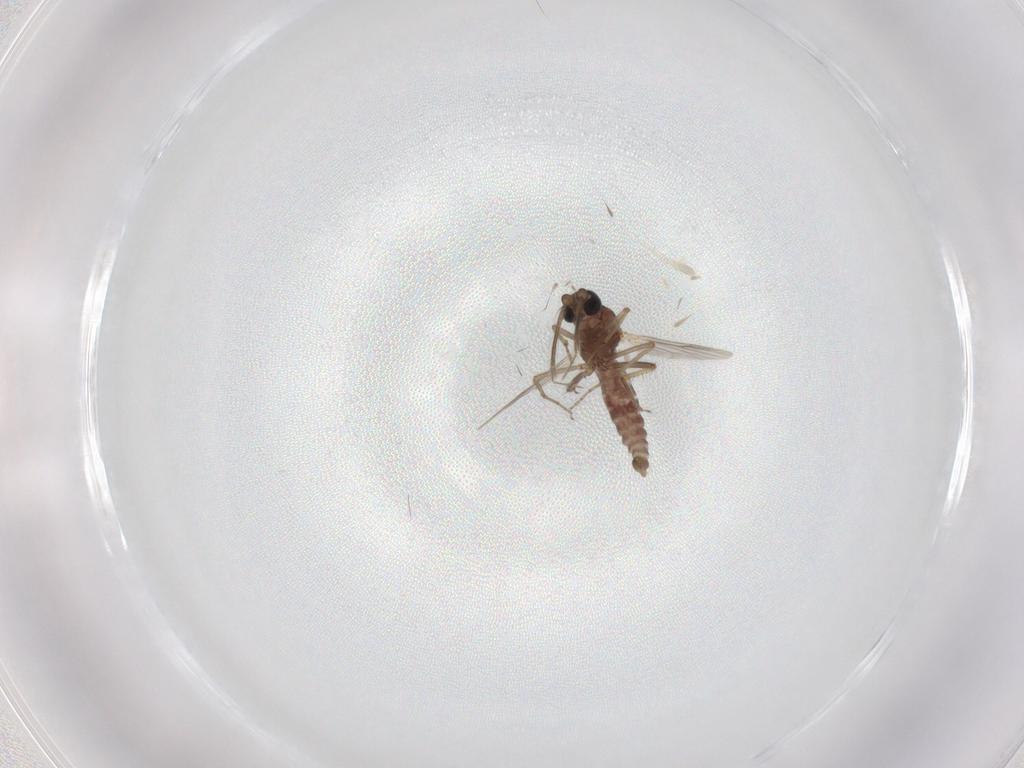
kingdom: Animalia
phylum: Arthropoda
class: Insecta
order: Diptera
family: Ceratopogonidae
